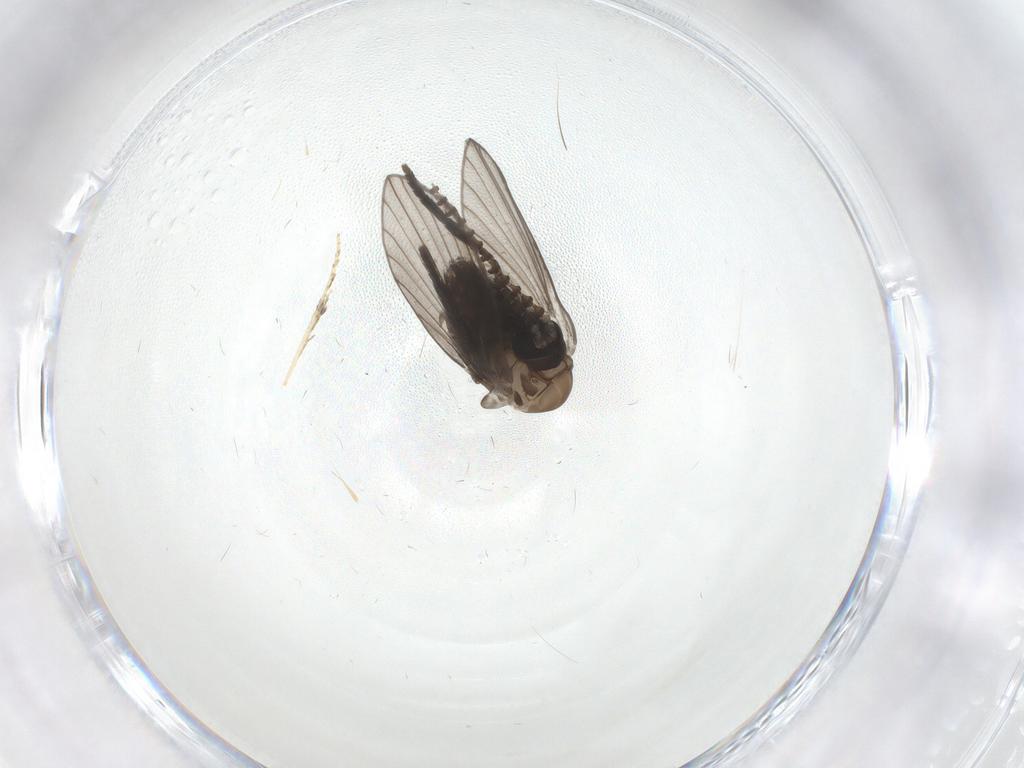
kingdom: Animalia
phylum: Arthropoda
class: Insecta
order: Diptera
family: Psychodidae
